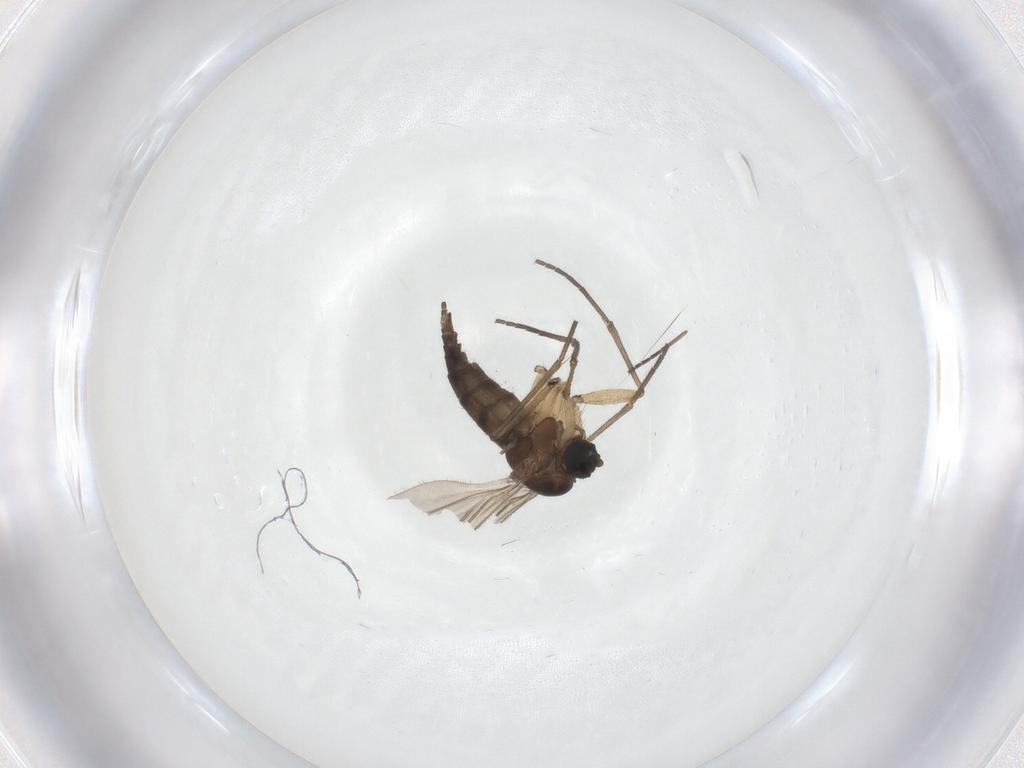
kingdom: Animalia
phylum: Arthropoda
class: Insecta
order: Diptera
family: Sciaridae
